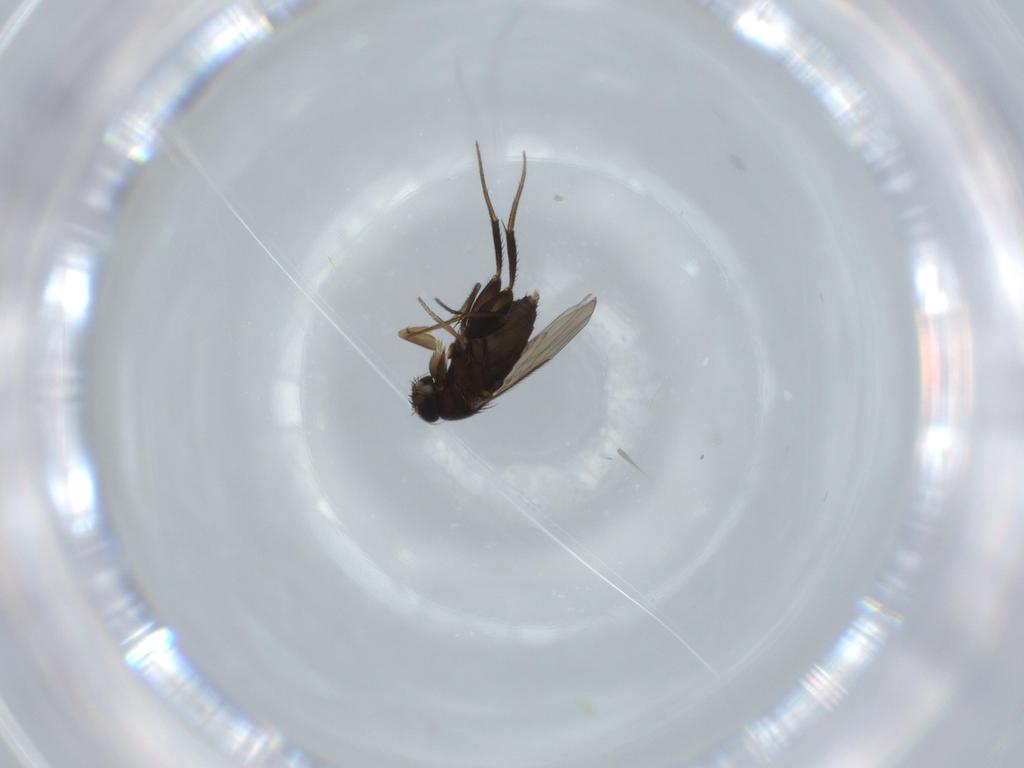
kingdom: Animalia
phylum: Arthropoda
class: Insecta
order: Diptera
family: Phoridae
